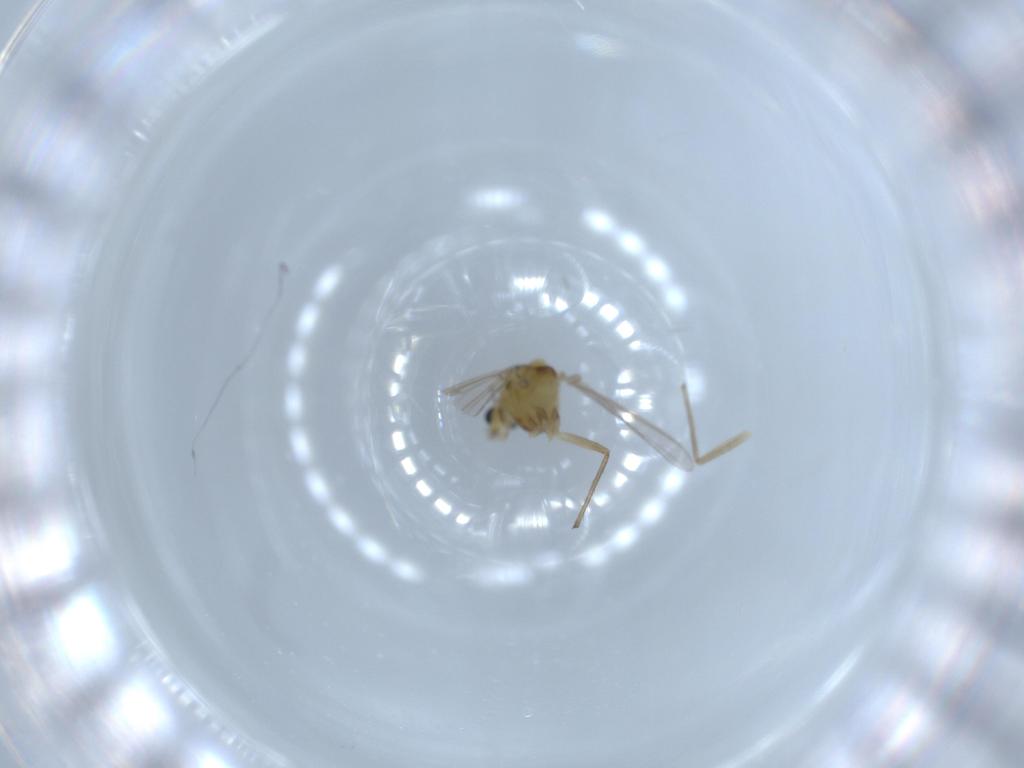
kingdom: Animalia
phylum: Arthropoda
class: Insecta
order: Diptera
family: Chironomidae
